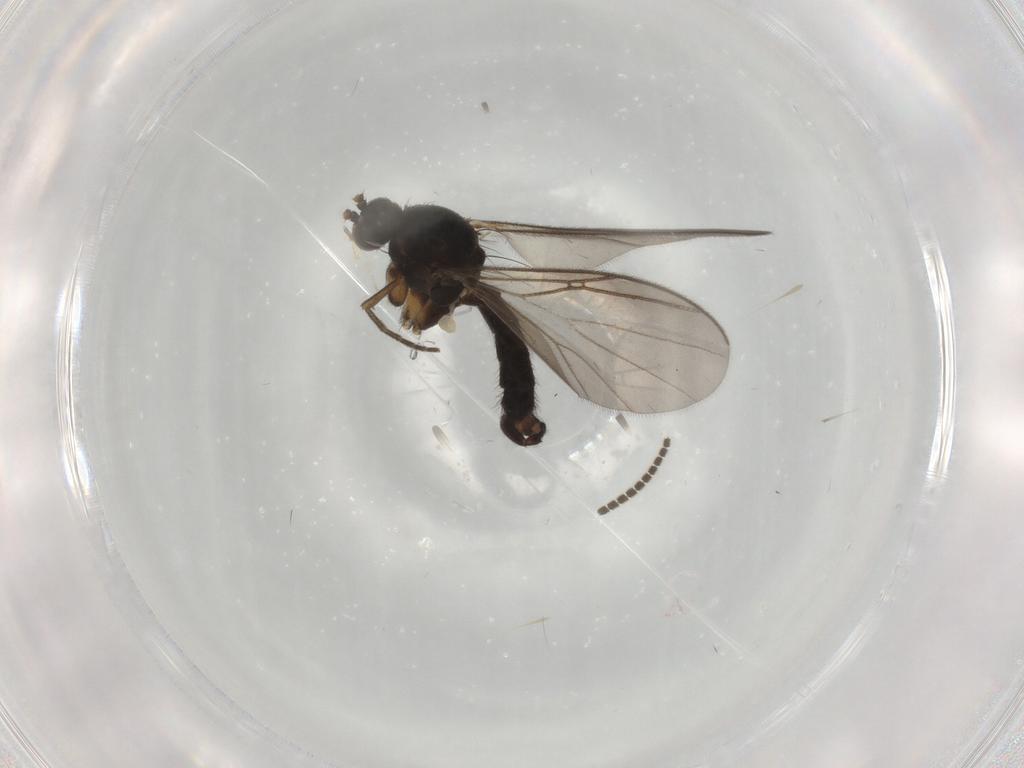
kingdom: Animalia
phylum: Arthropoda
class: Insecta
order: Diptera
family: Mycetophilidae
